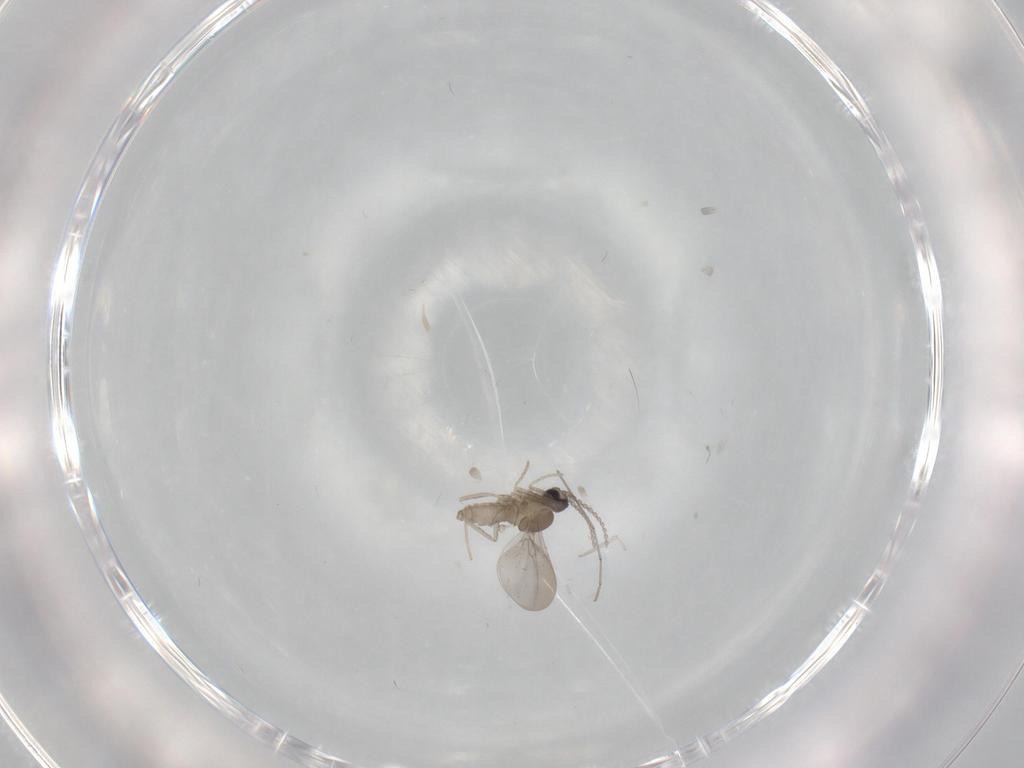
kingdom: Animalia
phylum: Arthropoda
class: Insecta
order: Diptera
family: Cecidomyiidae
